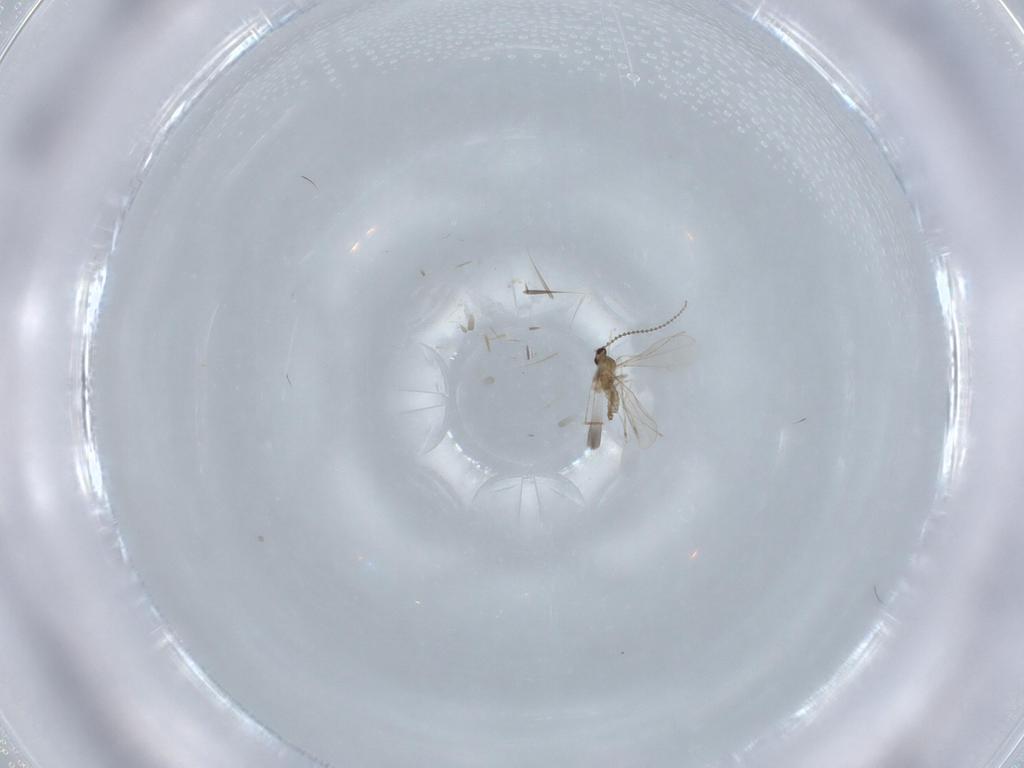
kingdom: Animalia
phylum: Arthropoda
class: Insecta
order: Diptera
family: Cecidomyiidae
